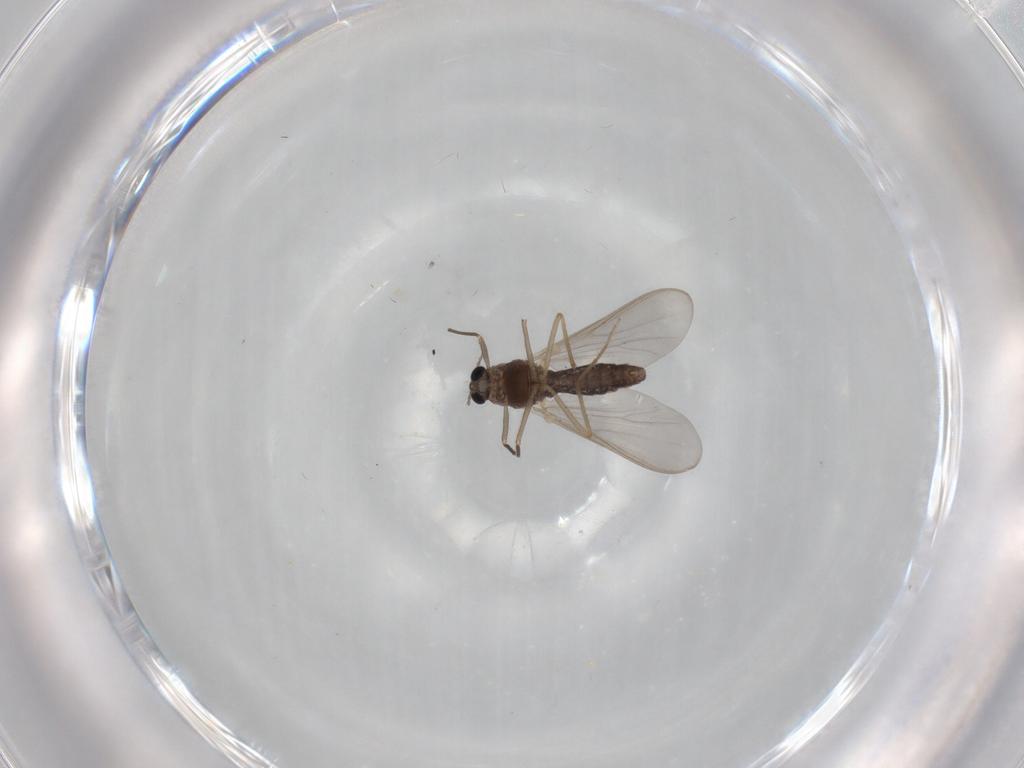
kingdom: Animalia
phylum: Arthropoda
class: Insecta
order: Diptera
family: Chironomidae
